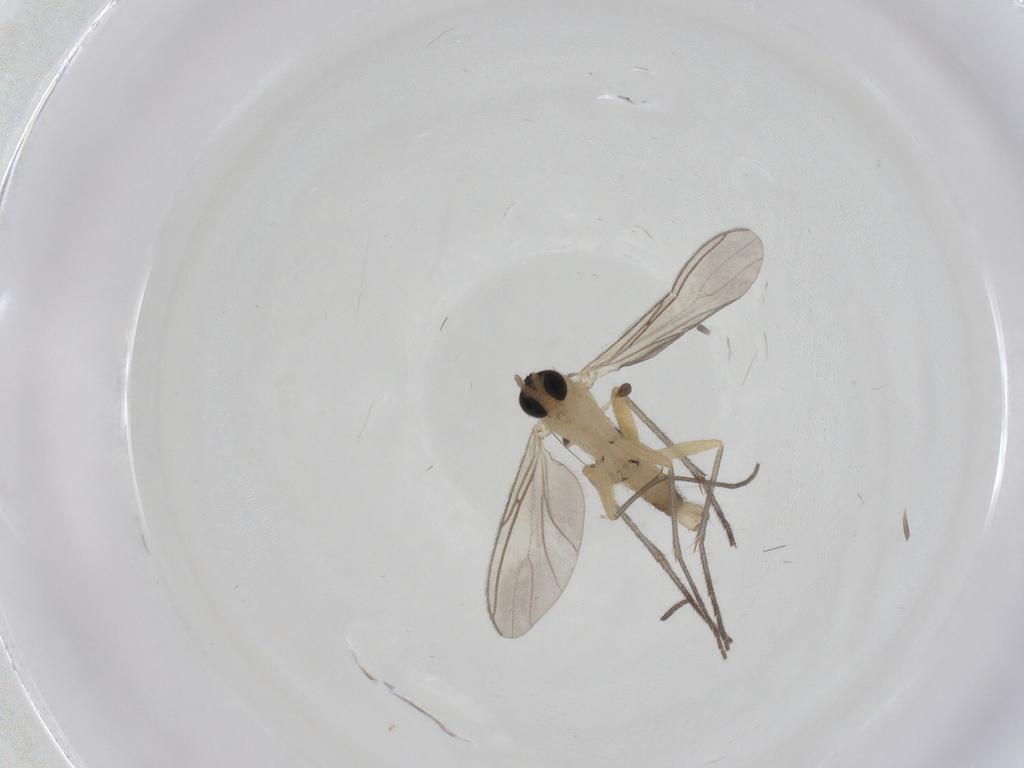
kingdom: Animalia
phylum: Arthropoda
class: Insecta
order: Diptera
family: Sciaridae
